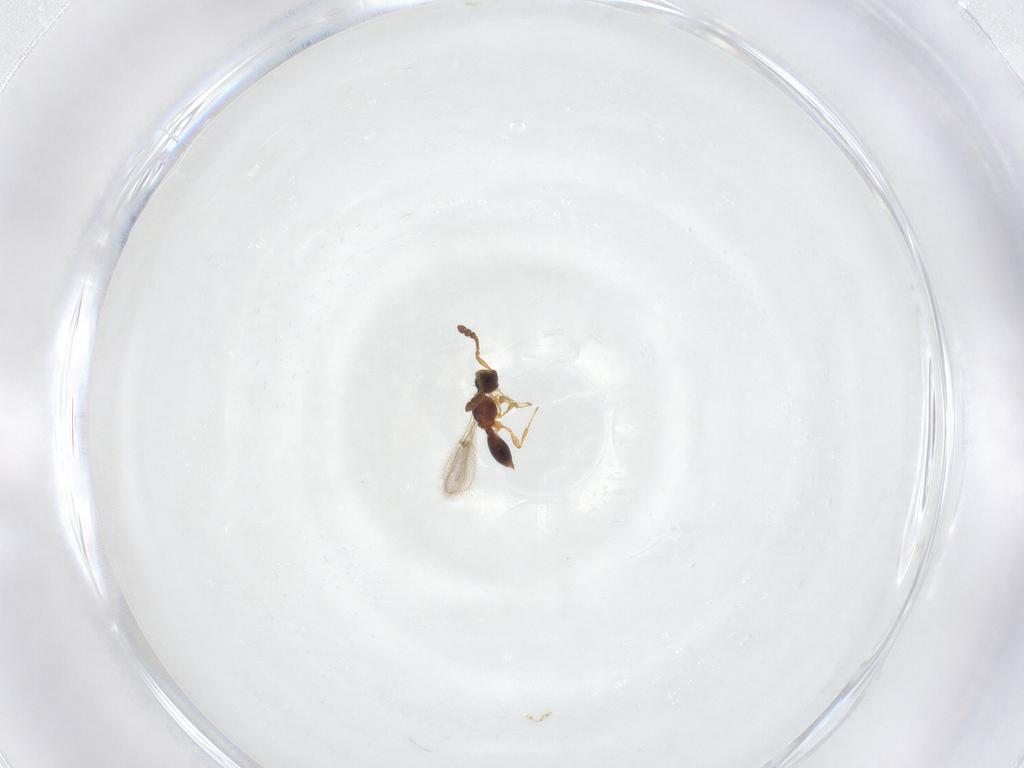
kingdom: Animalia
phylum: Arthropoda
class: Insecta
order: Hymenoptera
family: Diapriidae
